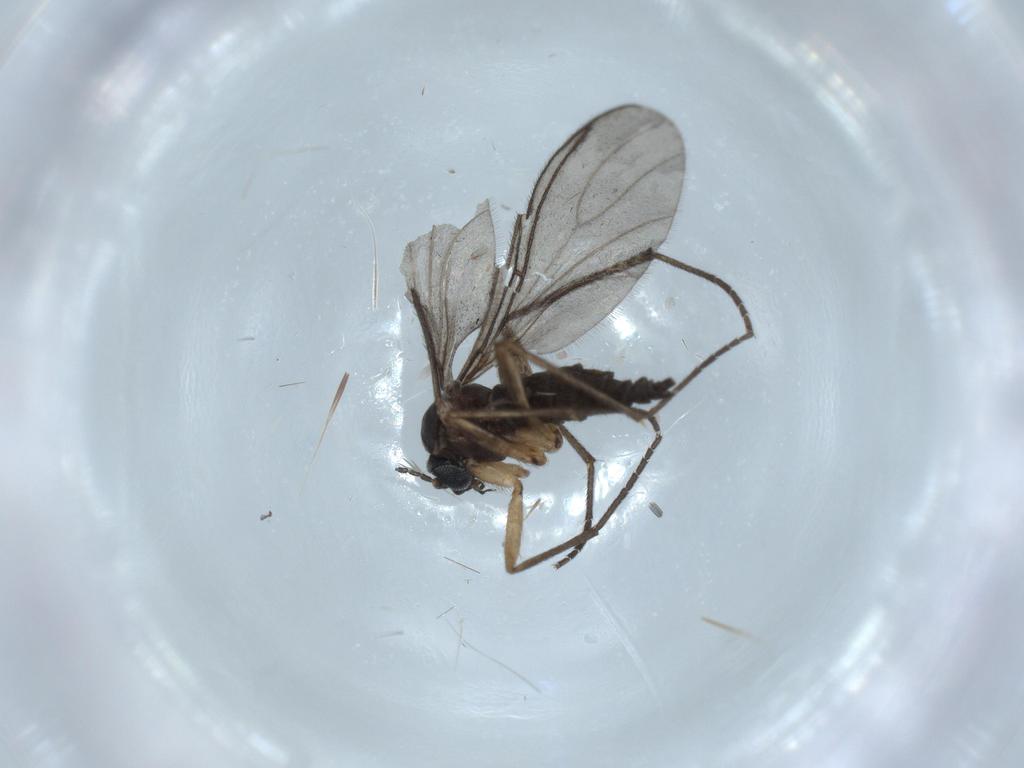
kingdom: Animalia
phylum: Arthropoda
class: Insecta
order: Diptera
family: Sciaridae
